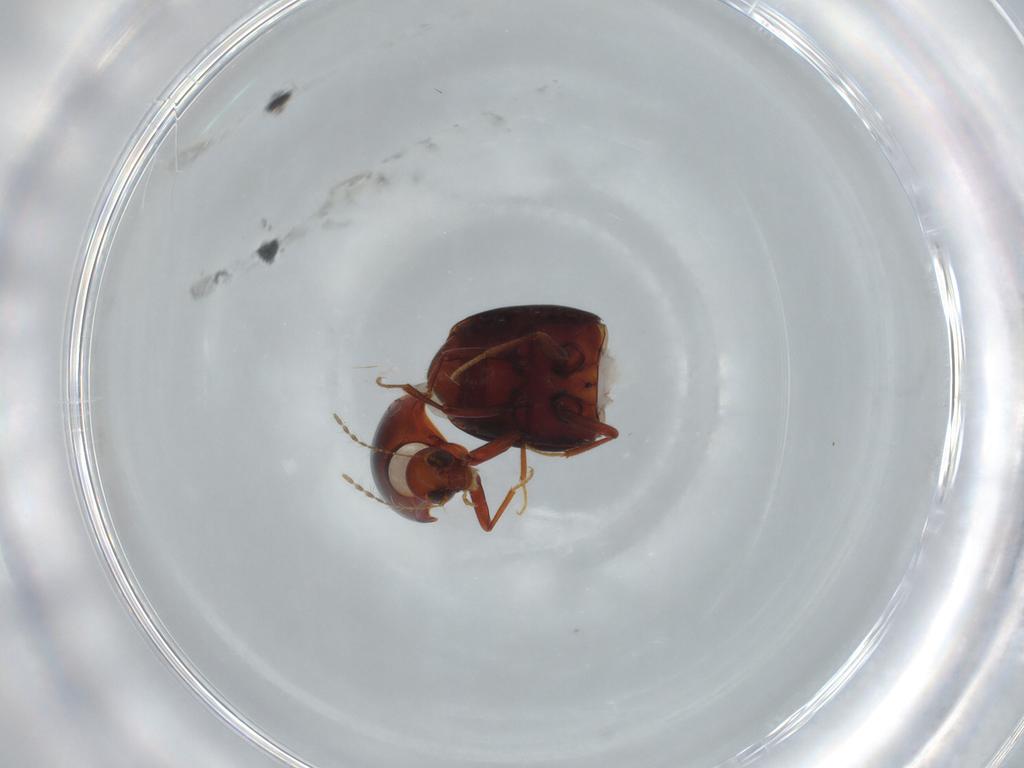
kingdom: Animalia
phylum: Arthropoda
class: Insecta
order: Coleoptera
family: Staphylinidae
